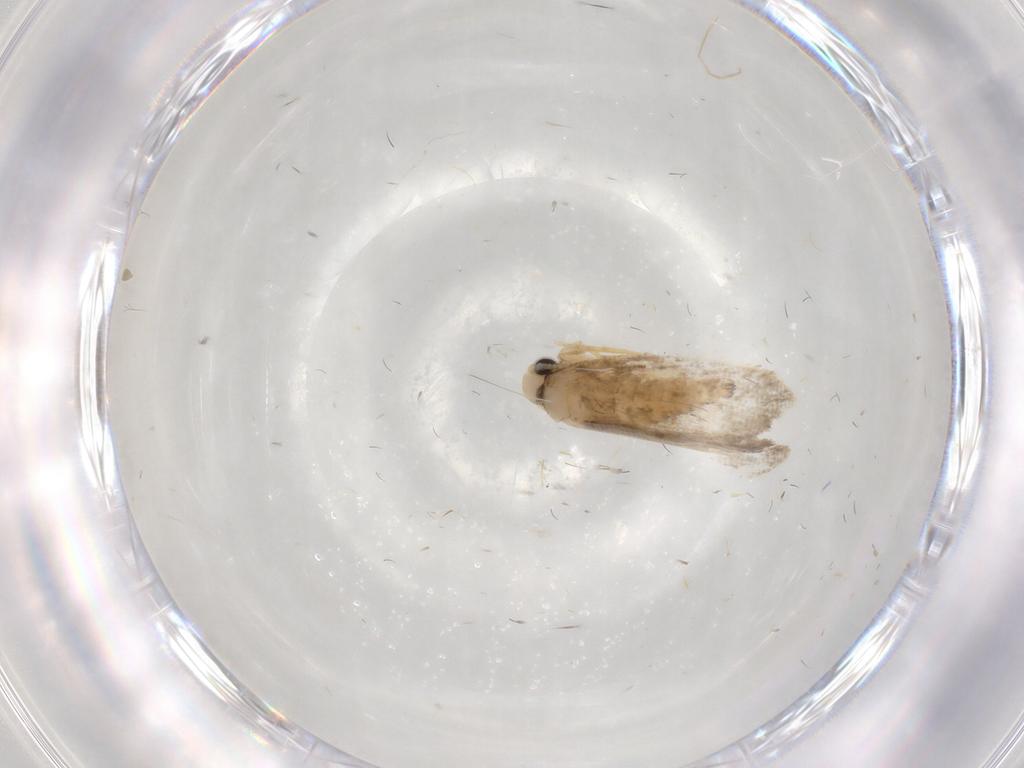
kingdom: Animalia
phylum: Arthropoda
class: Insecta
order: Lepidoptera
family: Psychidae
